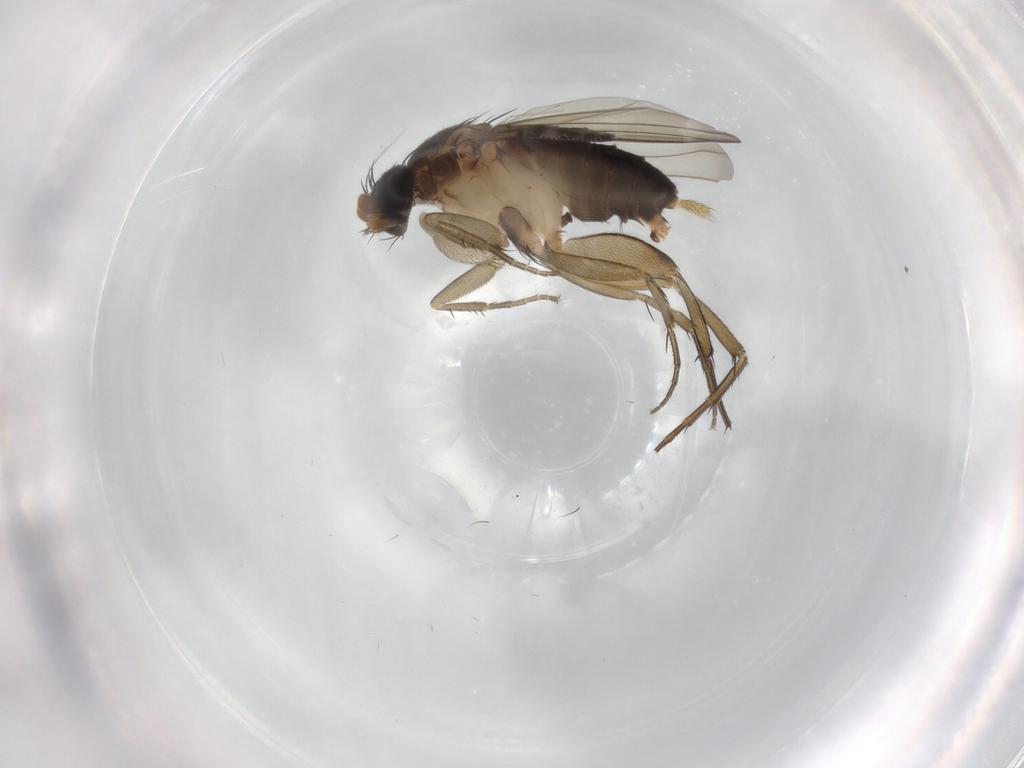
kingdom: Animalia
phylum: Arthropoda
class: Insecta
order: Diptera
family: Phoridae
